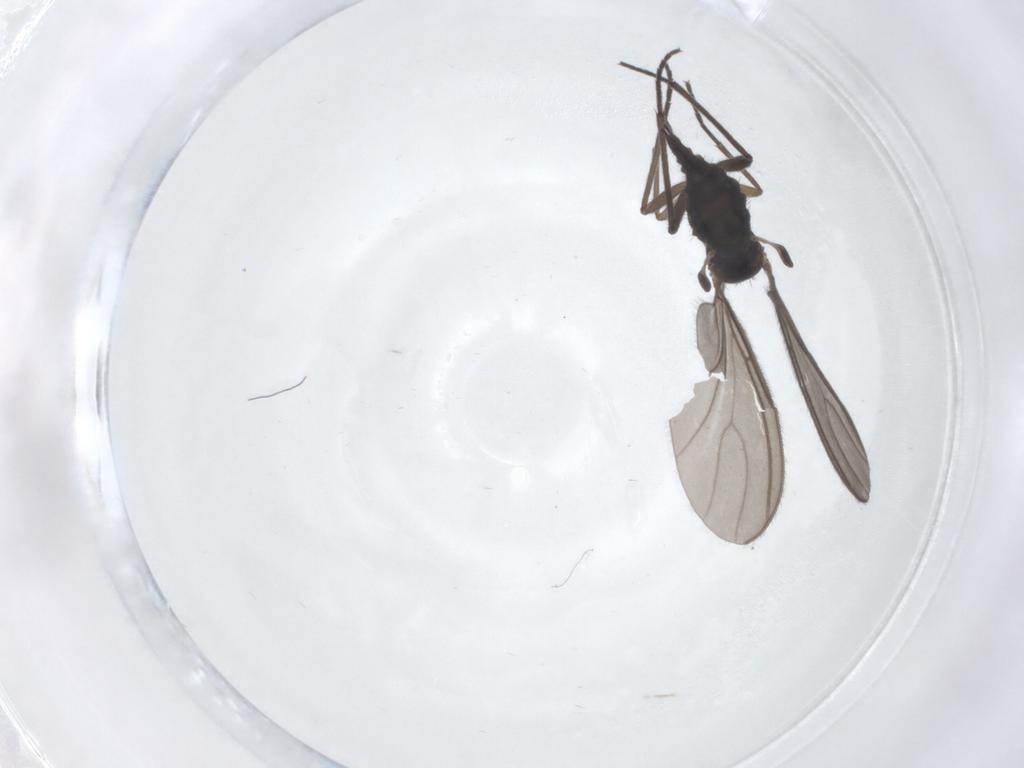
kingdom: Animalia
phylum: Arthropoda
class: Insecta
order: Diptera
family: Sciaridae
